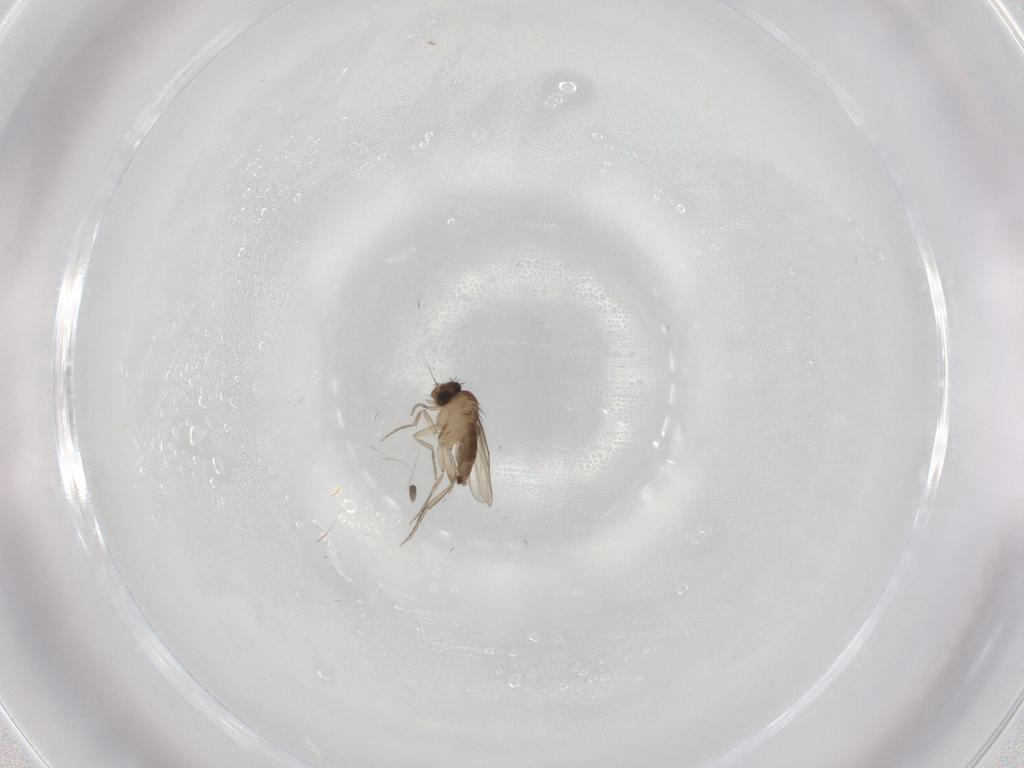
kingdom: Animalia
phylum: Arthropoda
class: Insecta
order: Diptera
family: Phoridae
